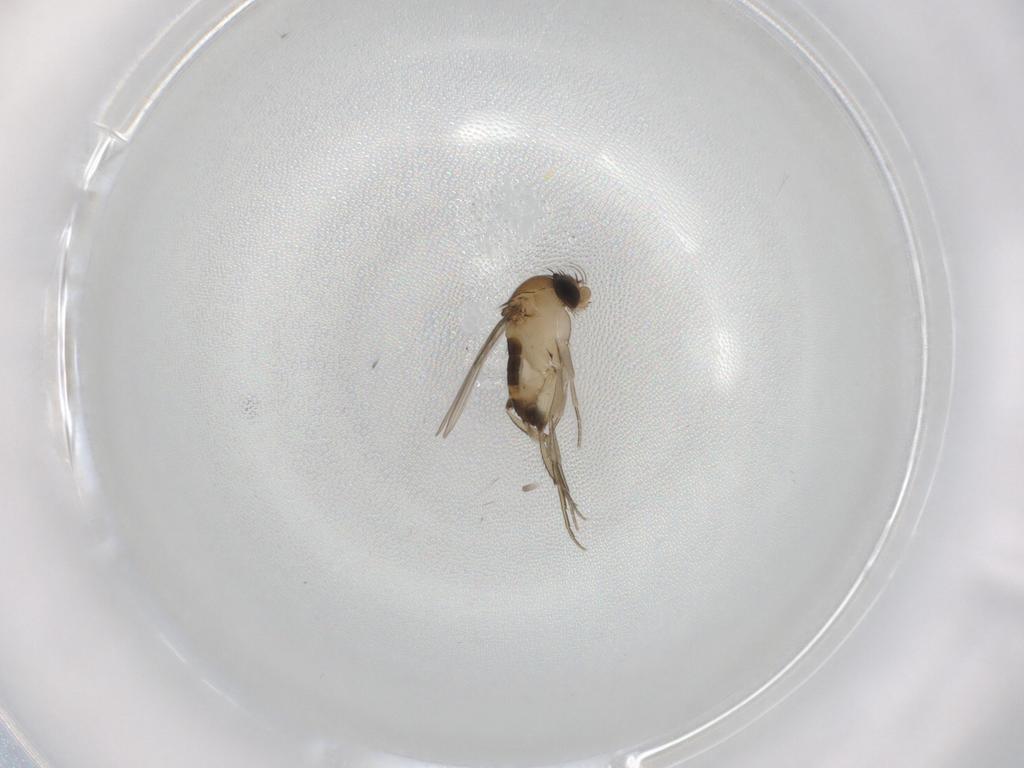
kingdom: Animalia
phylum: Arthropoda
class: Insecta
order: Diptera
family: Phoridae
